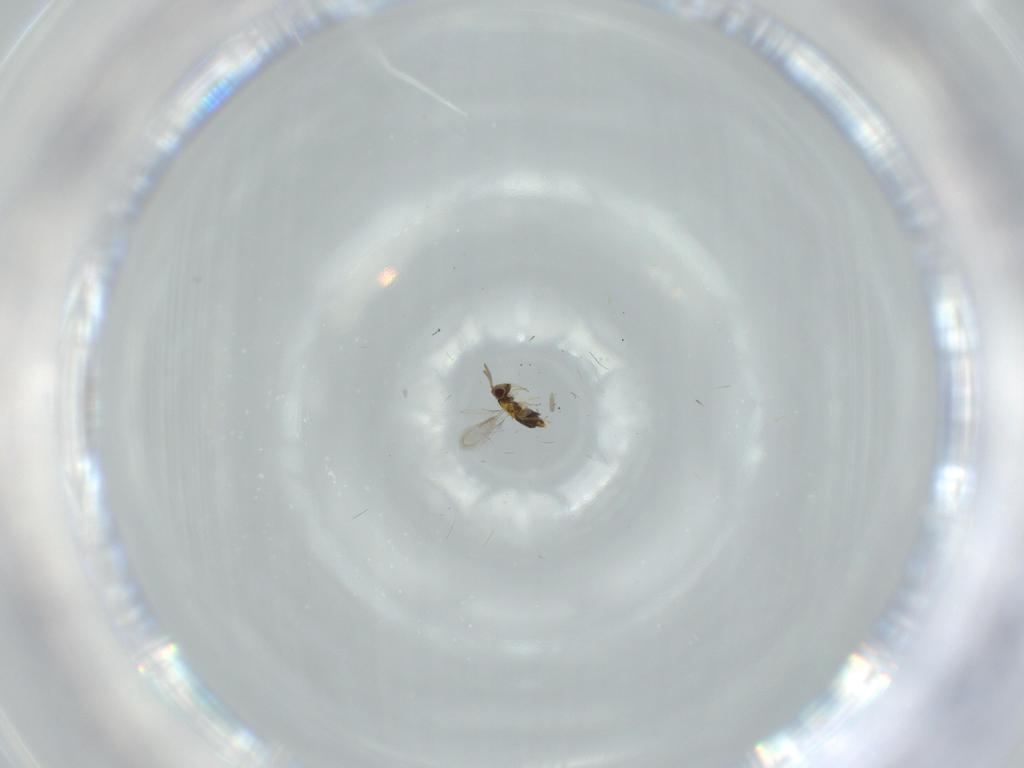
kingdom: Animalia
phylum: Arthropoda
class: Insecta
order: Hymenoptera
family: Aphelinidae
